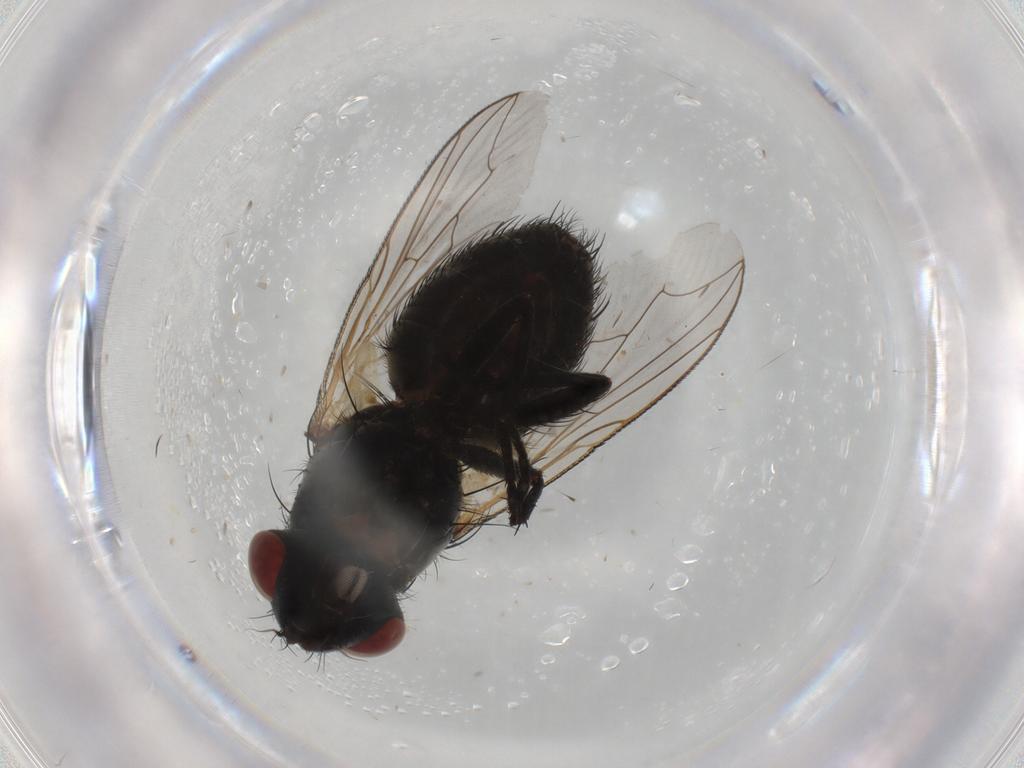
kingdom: Animalia
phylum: Arthropoda
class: Insecta
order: Diptera
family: Sarcophagidae
